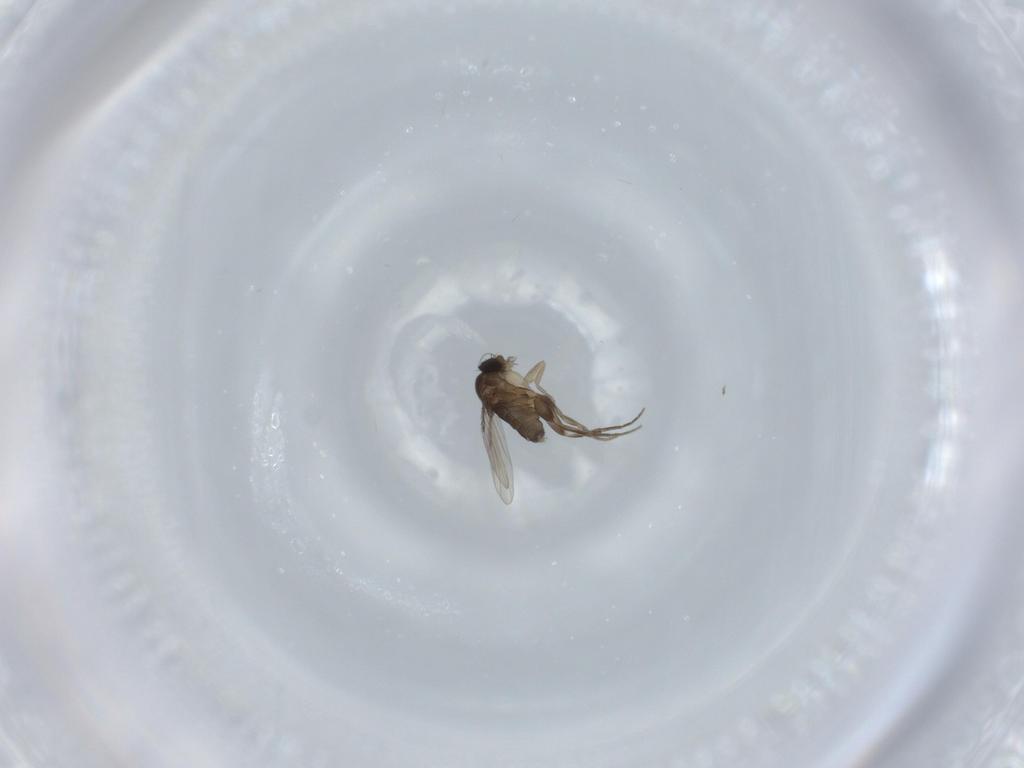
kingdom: Animalia
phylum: Arthropoda
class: Insecta
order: Diptera
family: Phoridae
